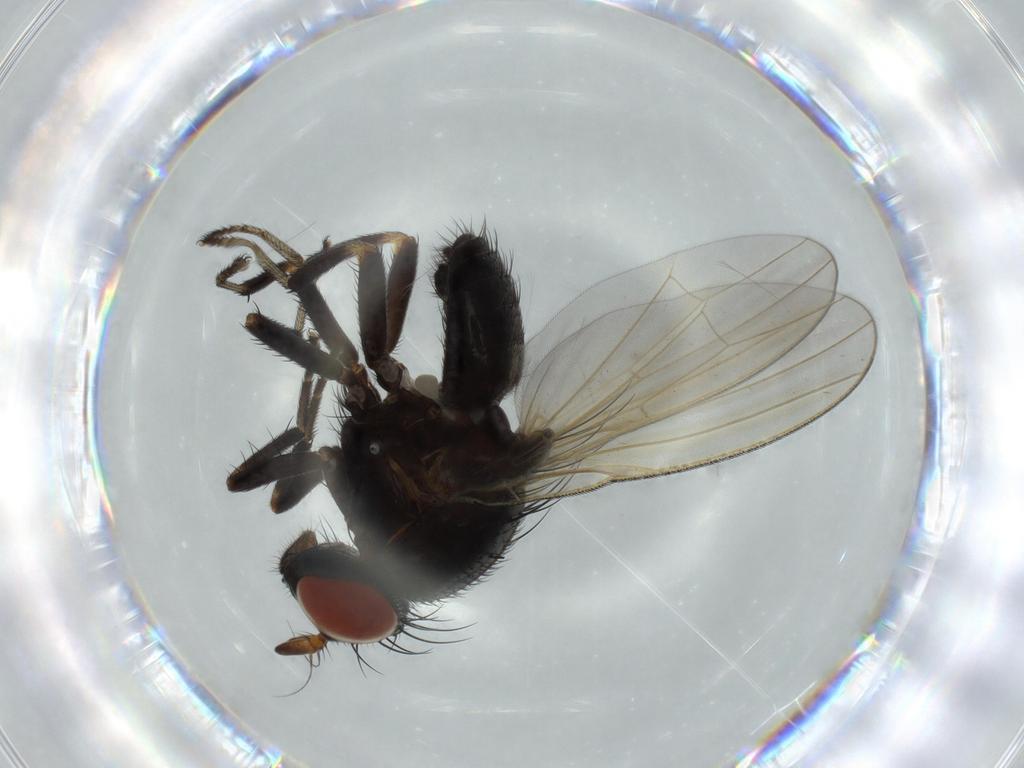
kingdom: Animalia
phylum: Arthropoda
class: Insecta
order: Diptera
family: Lauxaniidae
